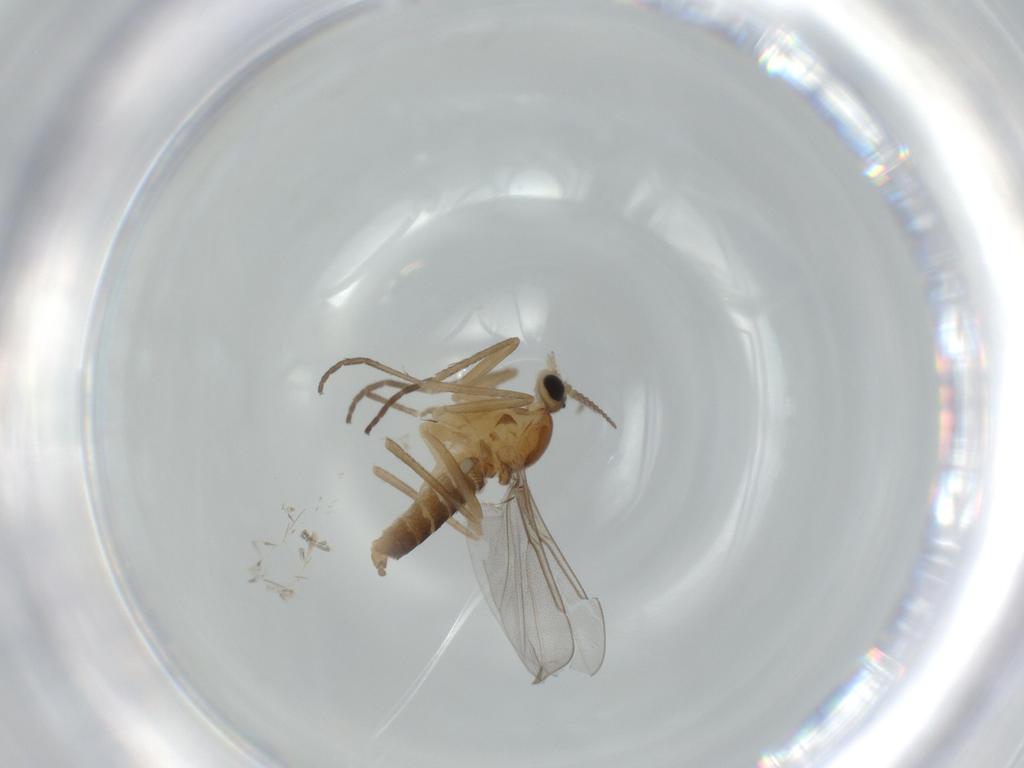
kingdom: Animalia
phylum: Arthropoda
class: Insecta
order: Diptera
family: Cecidomyiidae
